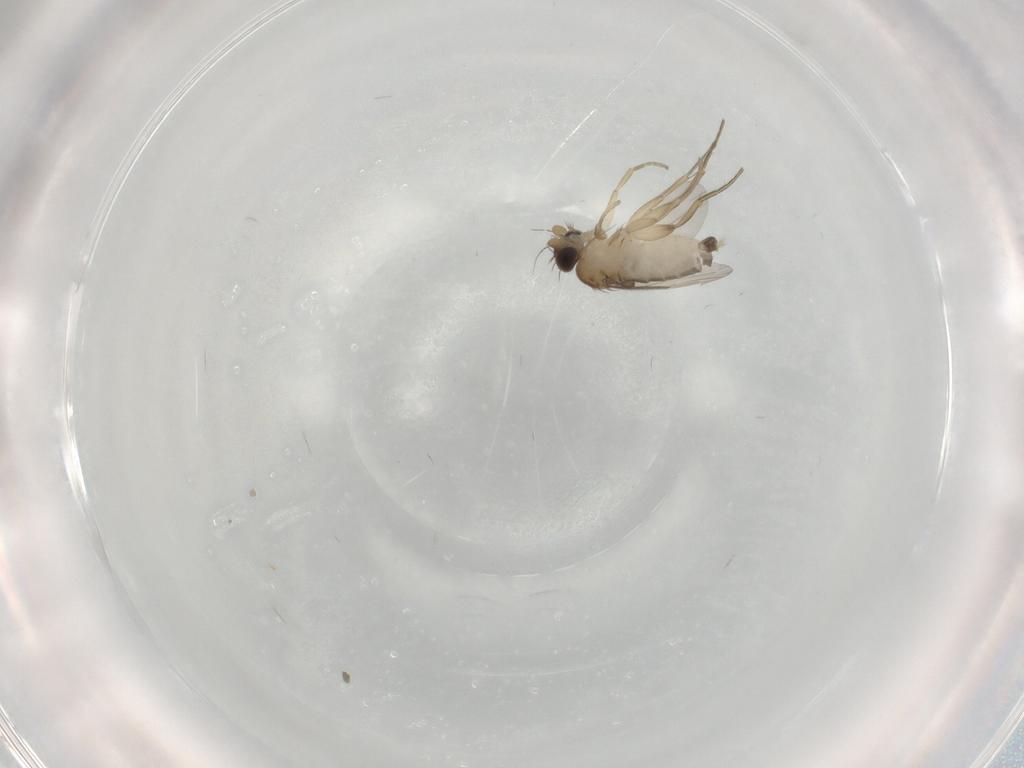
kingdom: Animalia
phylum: Arthropoda
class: Insecta
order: Diptera
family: Phoridae
